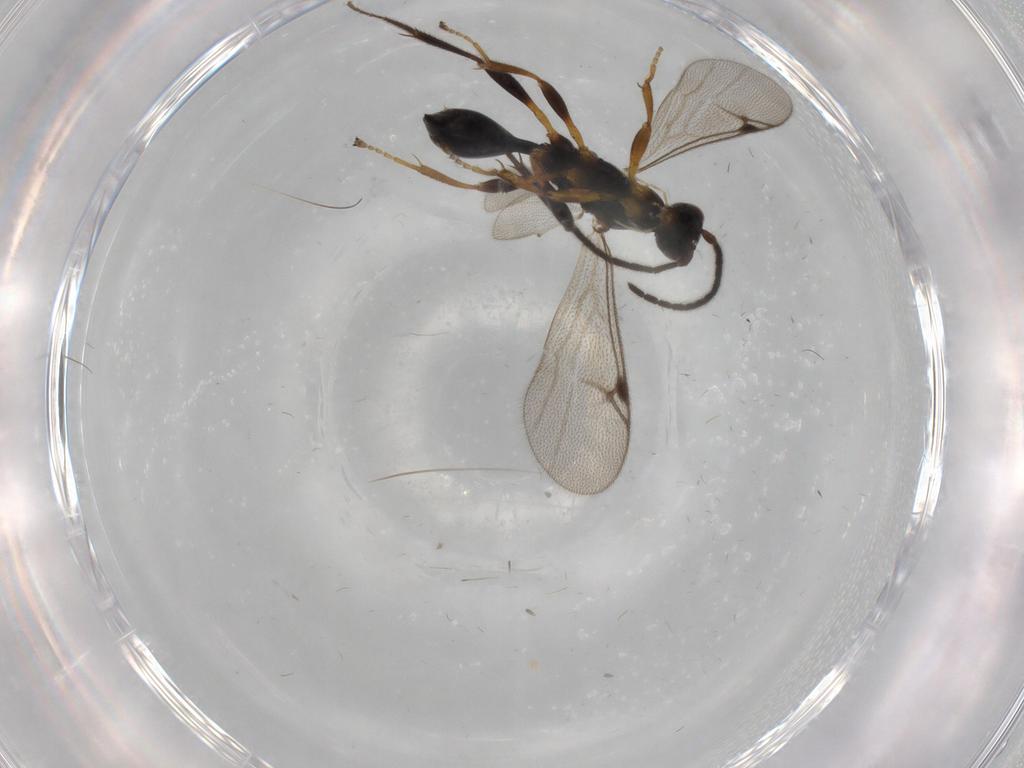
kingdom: Animalia
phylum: Arthropoda
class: Insecta
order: Hymenoptera
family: Proctotrupidae
